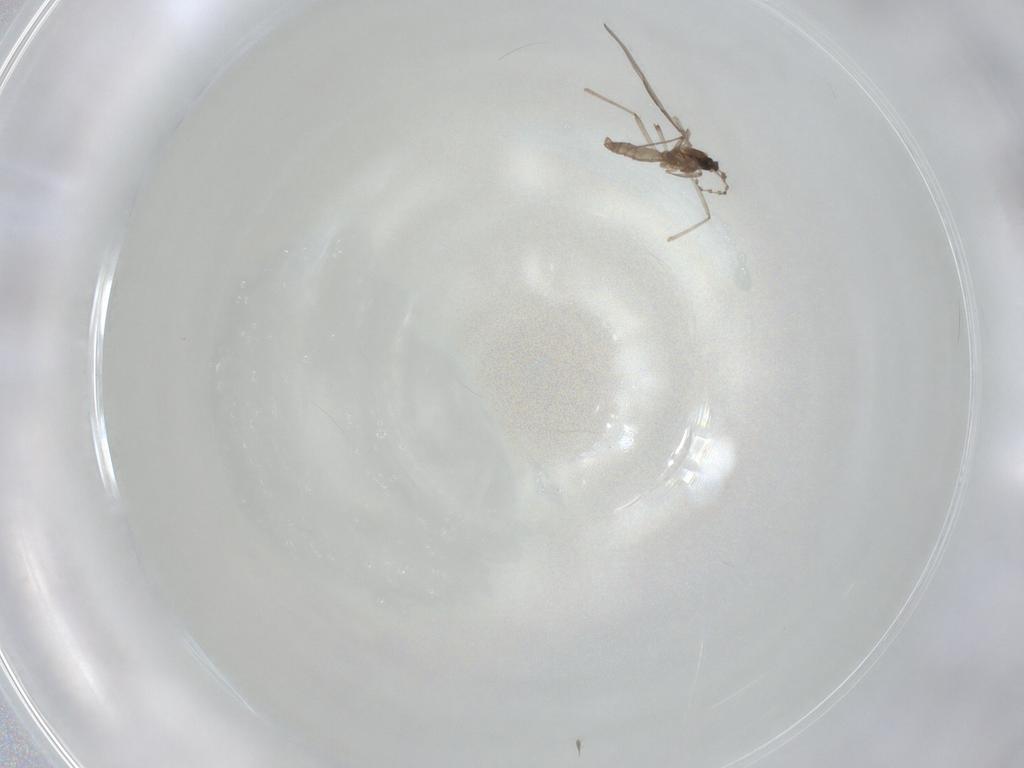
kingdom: Animalia
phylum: Arthropoda
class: Insecta
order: Diptera
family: Cecidomyiidae
